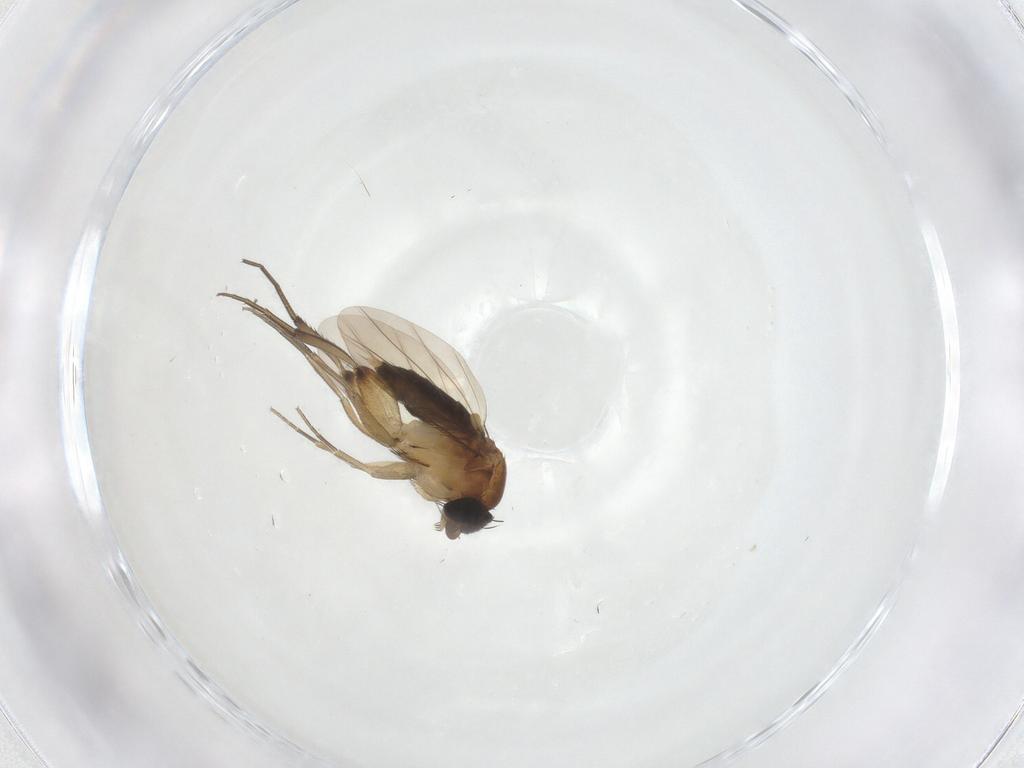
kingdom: Animalia
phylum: Arthropoda
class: Insecta
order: Diptera
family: Phoridae
